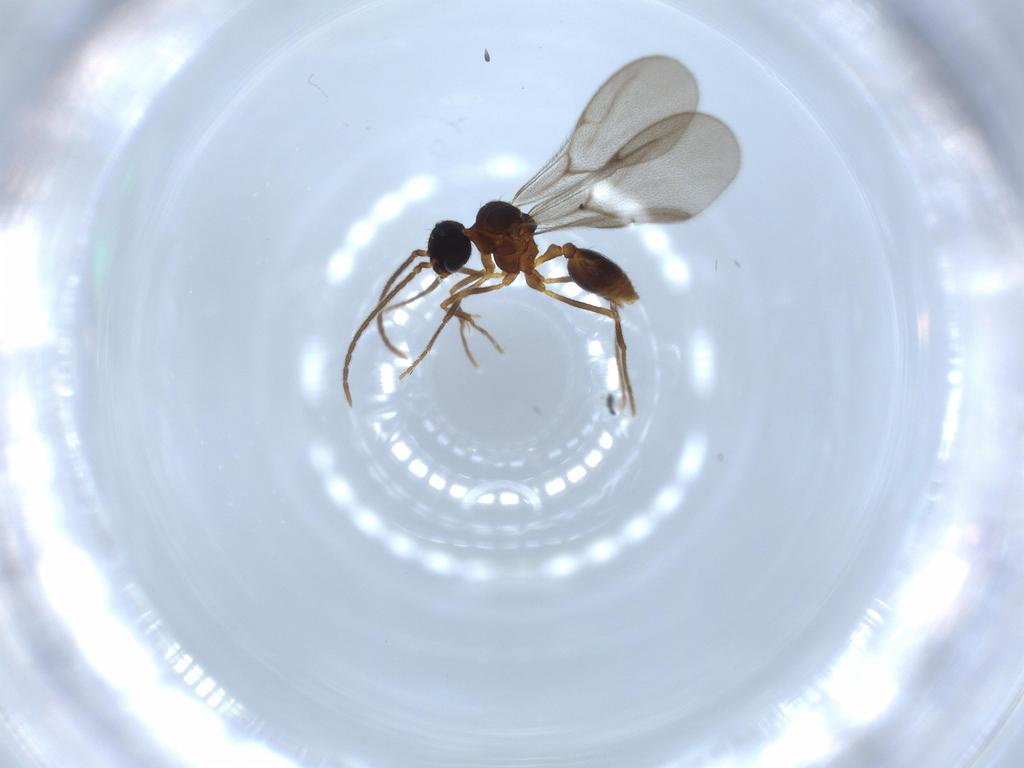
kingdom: Animalia
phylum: Arthropoda
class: Insecta
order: Hymenoptera
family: Formicidae
